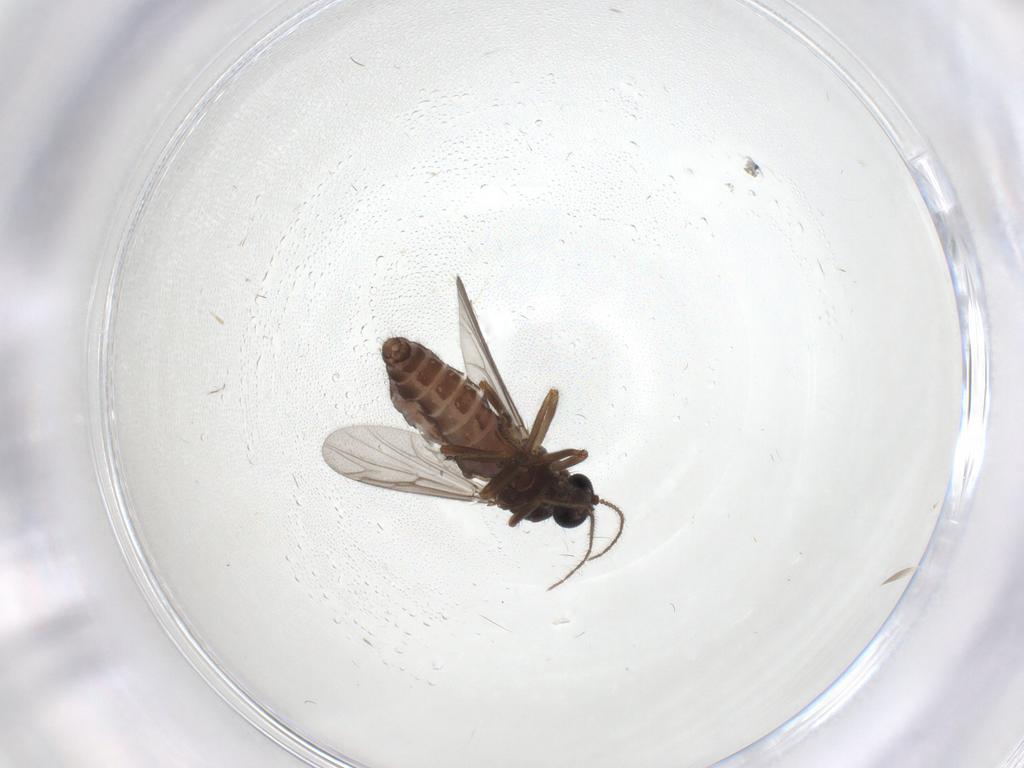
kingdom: Animalia
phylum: Arthropoda
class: Insecta
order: Diptera
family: Ceratopogonidae
